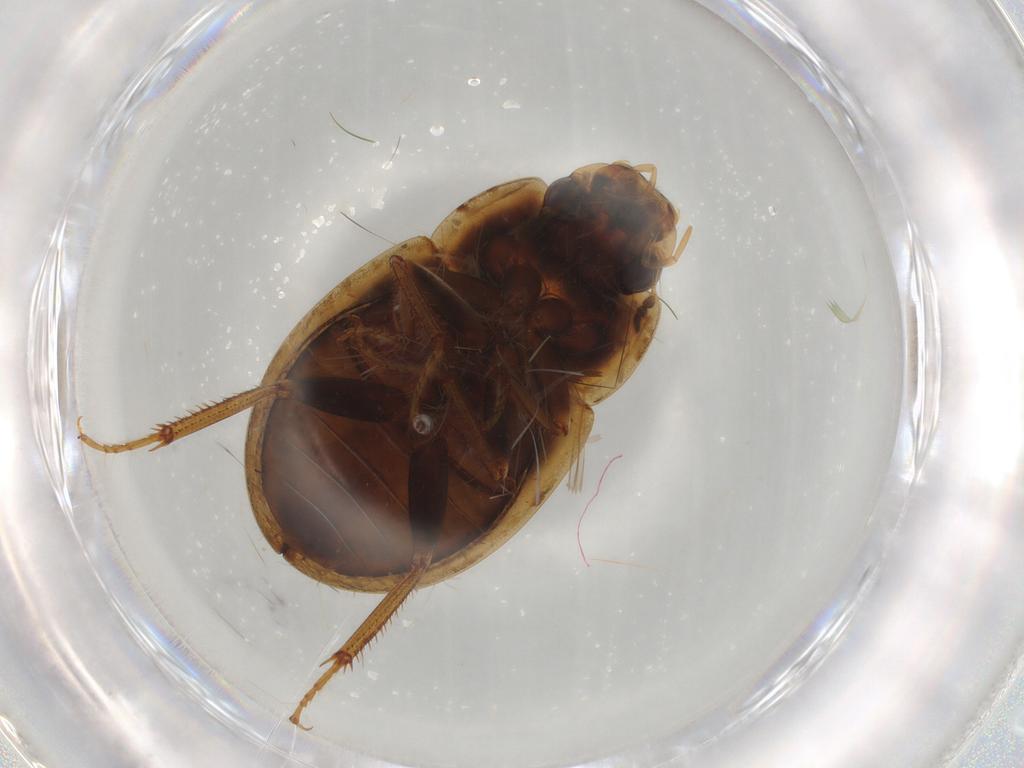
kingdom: Animalia
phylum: Arthropoda
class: Insecta
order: Coleoptera
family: Hydrophilidae
